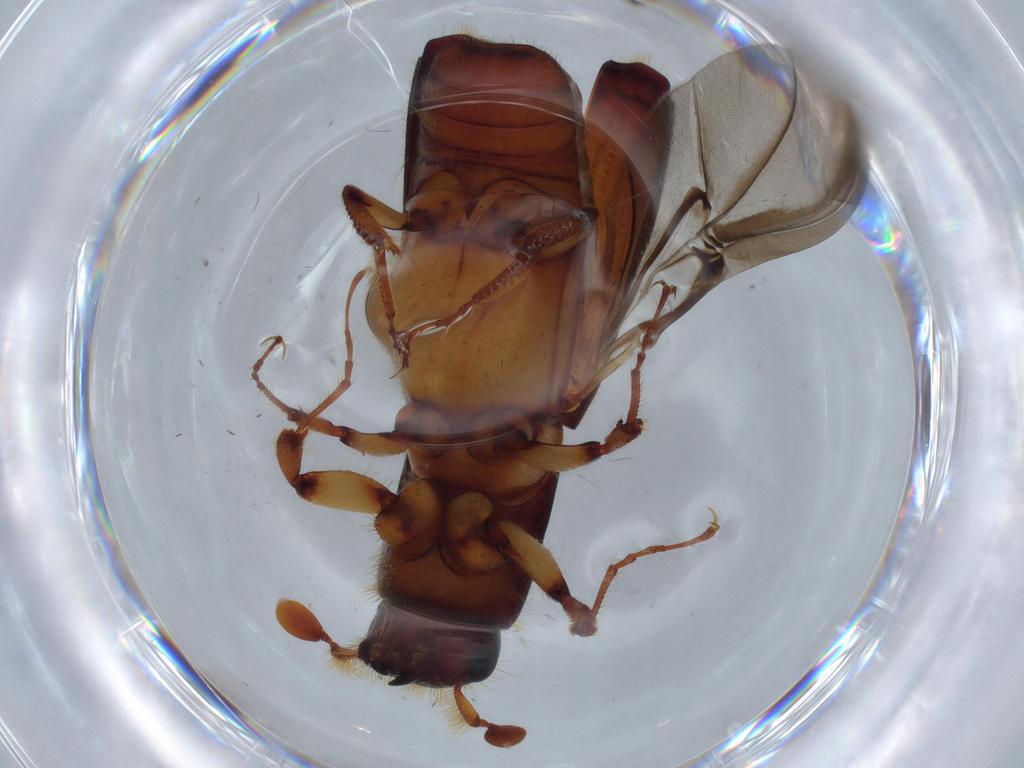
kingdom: Animalia
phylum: Arthropoda
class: Insecta
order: Coleoptera
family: Curculionidae
